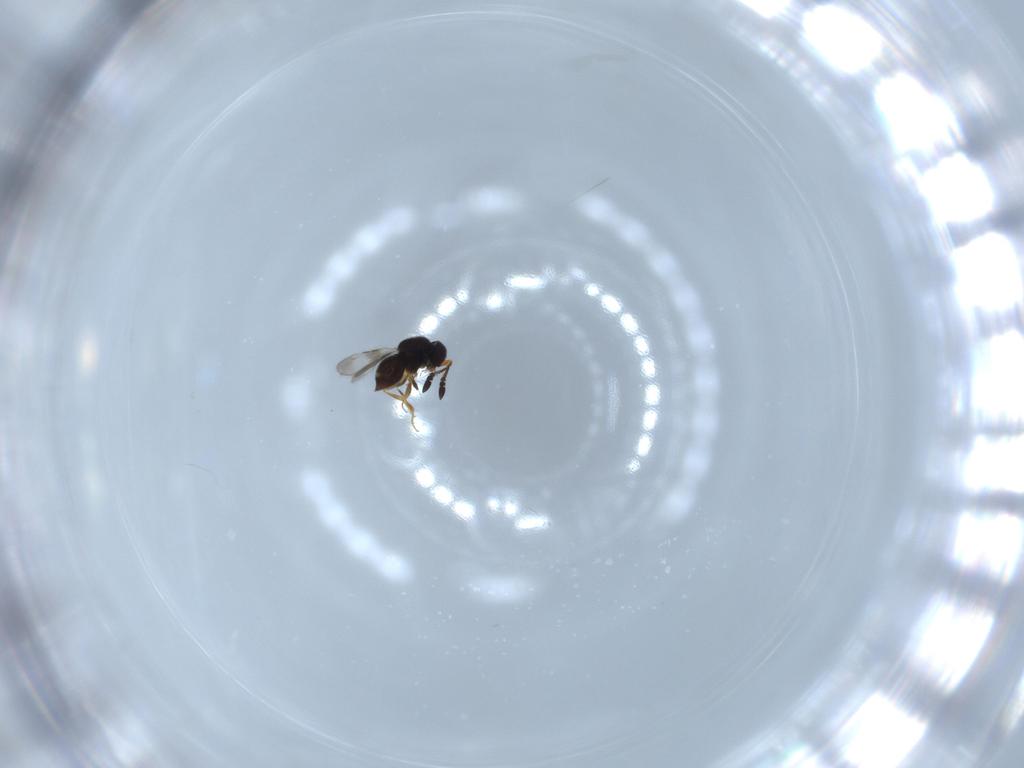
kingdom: Animalia
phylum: Arthropoda
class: Insecta
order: Hymenoptera
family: Ceraphronidae
